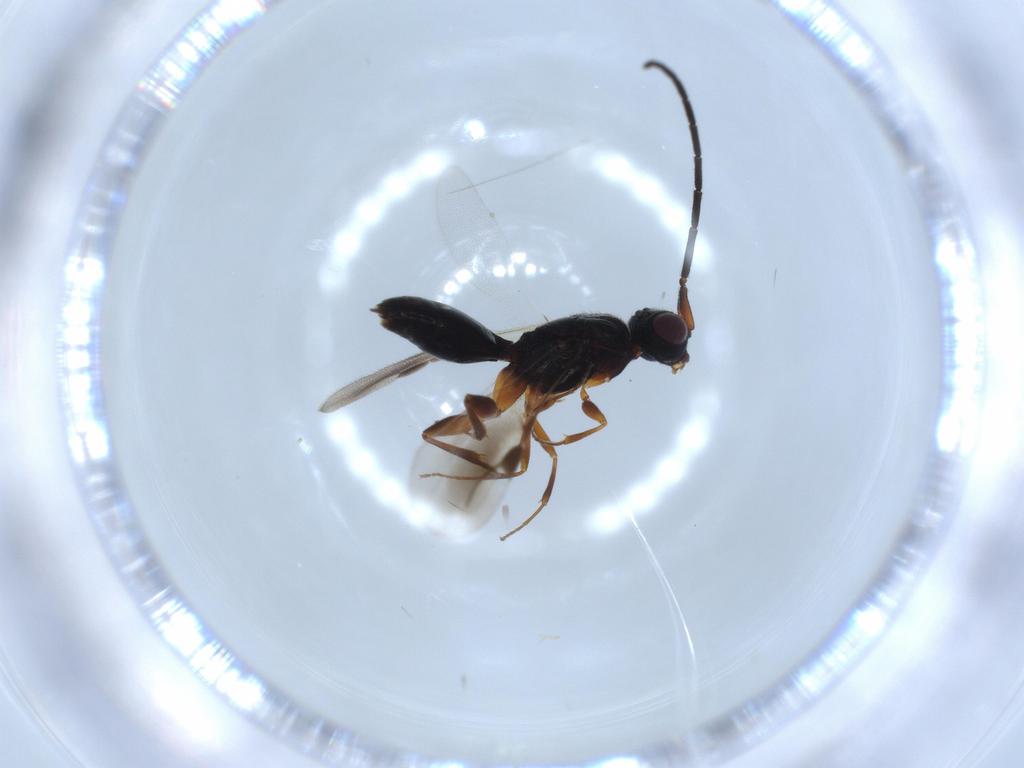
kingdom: Animalia
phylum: Arthropoda
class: Insecta
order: Hymenoptera
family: Megaspilidae
